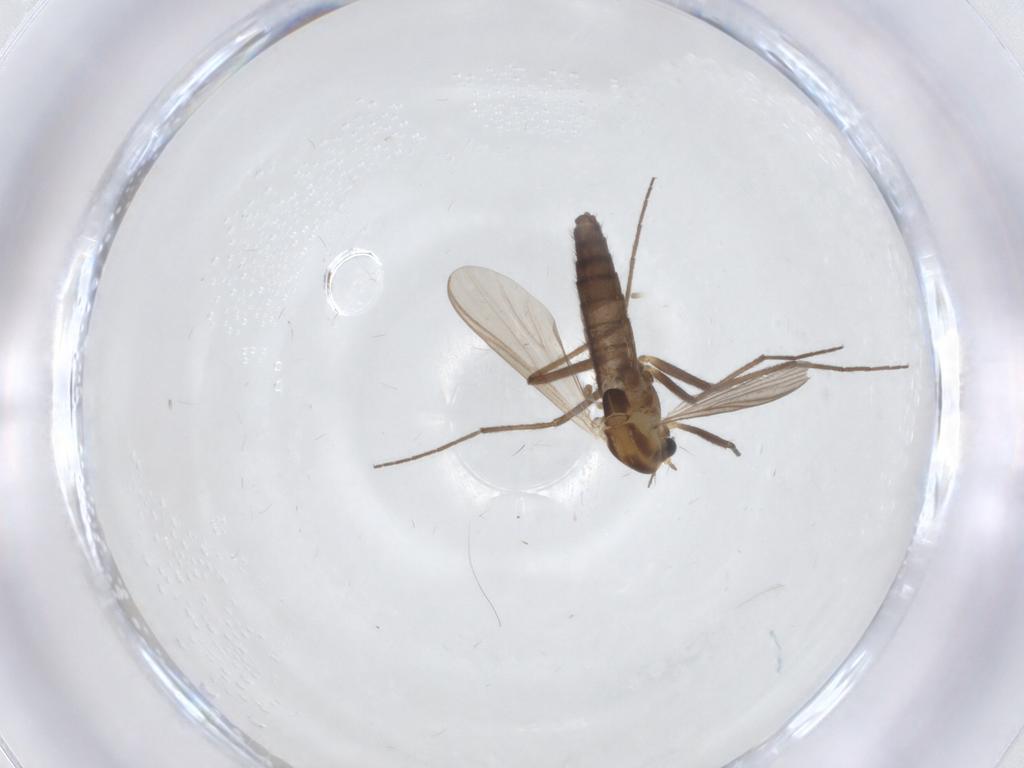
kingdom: Animalia
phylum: Arthropoda
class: Insecta
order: Diptera
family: Chironomidae
